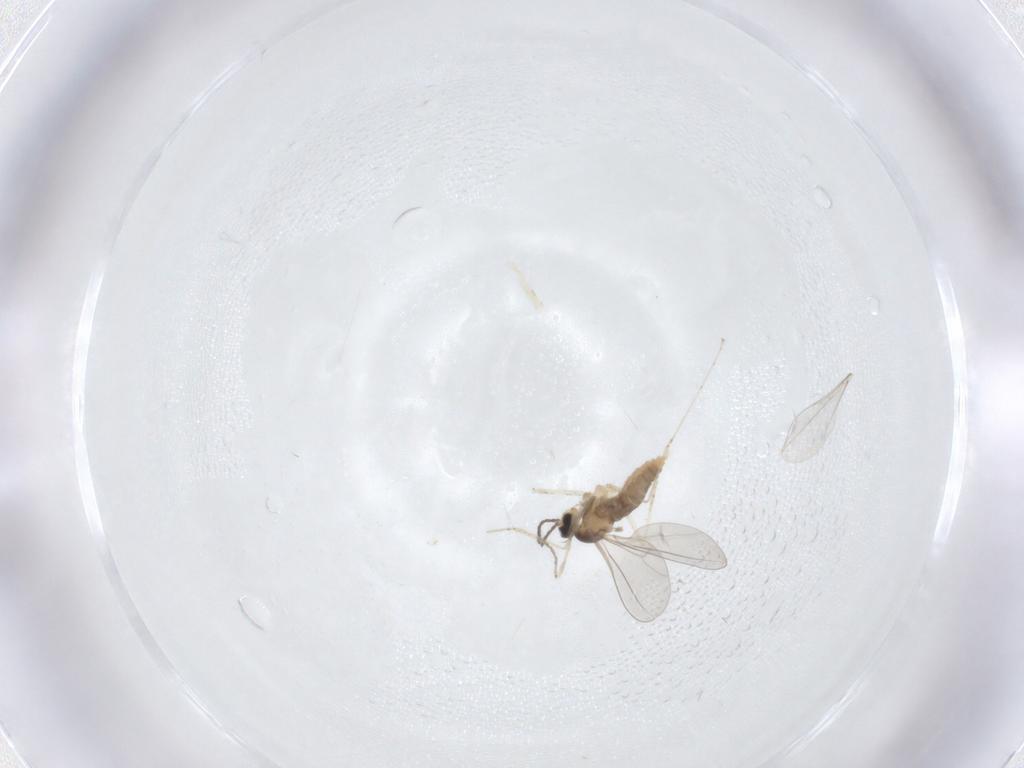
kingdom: Animalia
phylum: Arthropoda
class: Insecta
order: Diptera
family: Cecidomyiidae
